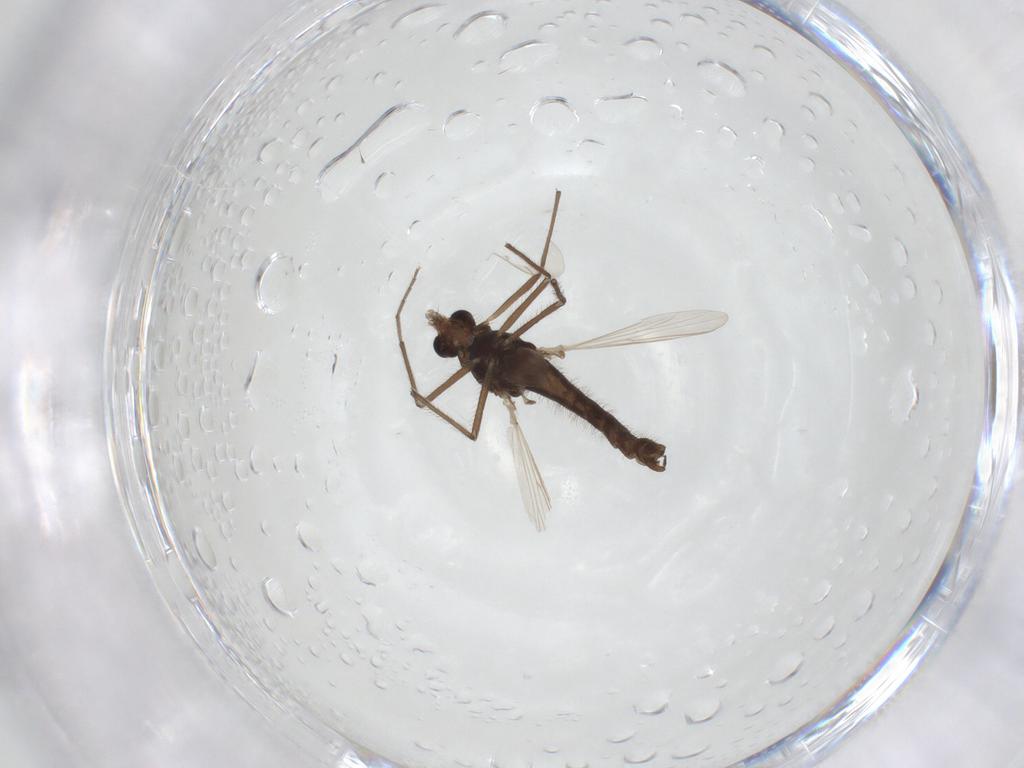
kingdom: Animalia
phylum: Arthropoda
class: Insecta
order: Diptera
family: Chironomidae
